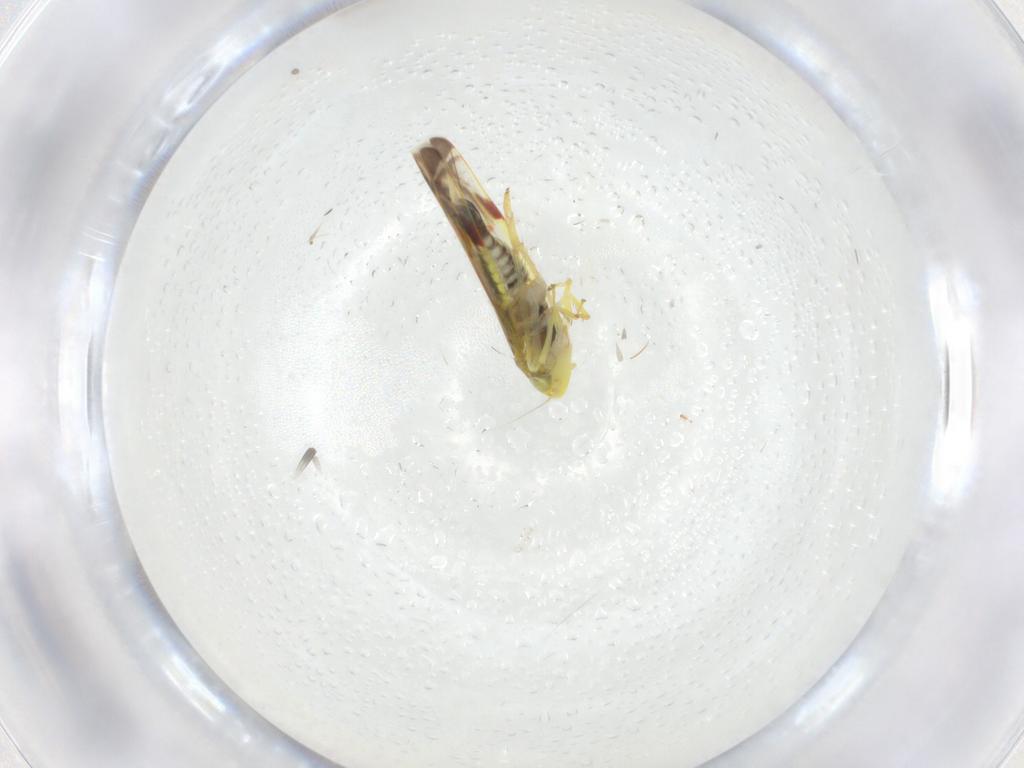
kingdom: Animalia
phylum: Arthropoda
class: Insecta
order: Hemiptera
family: Cicadellidae
